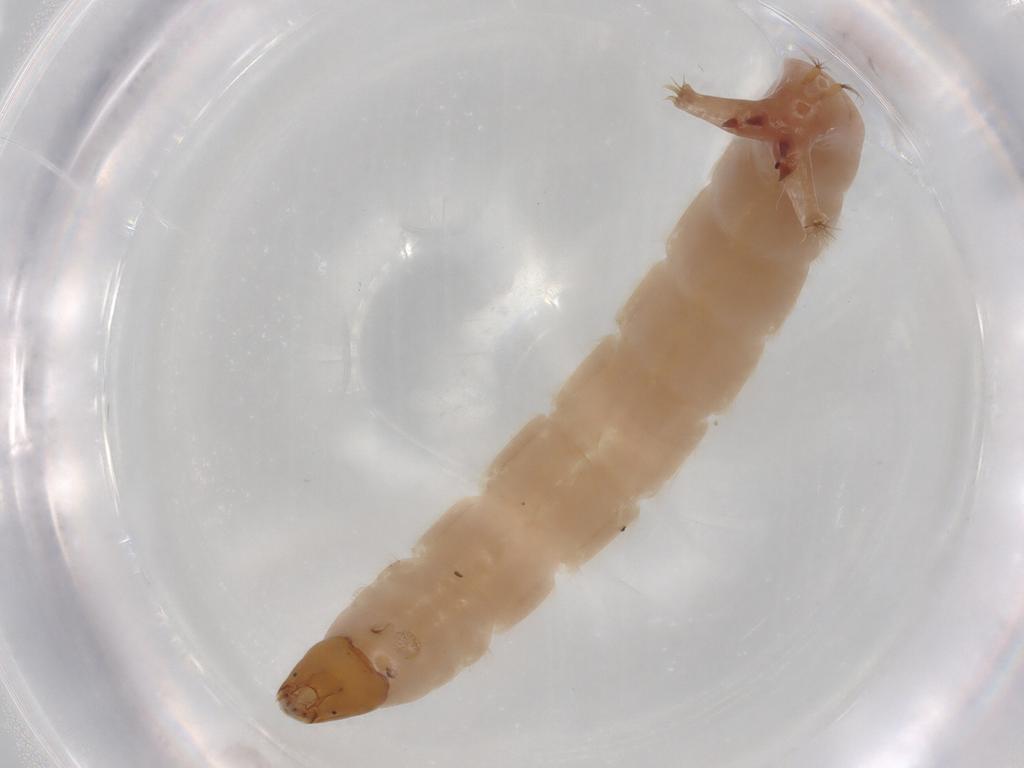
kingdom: Animalia
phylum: Arthropoda
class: Insecta
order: Diptera
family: Chironomidae
